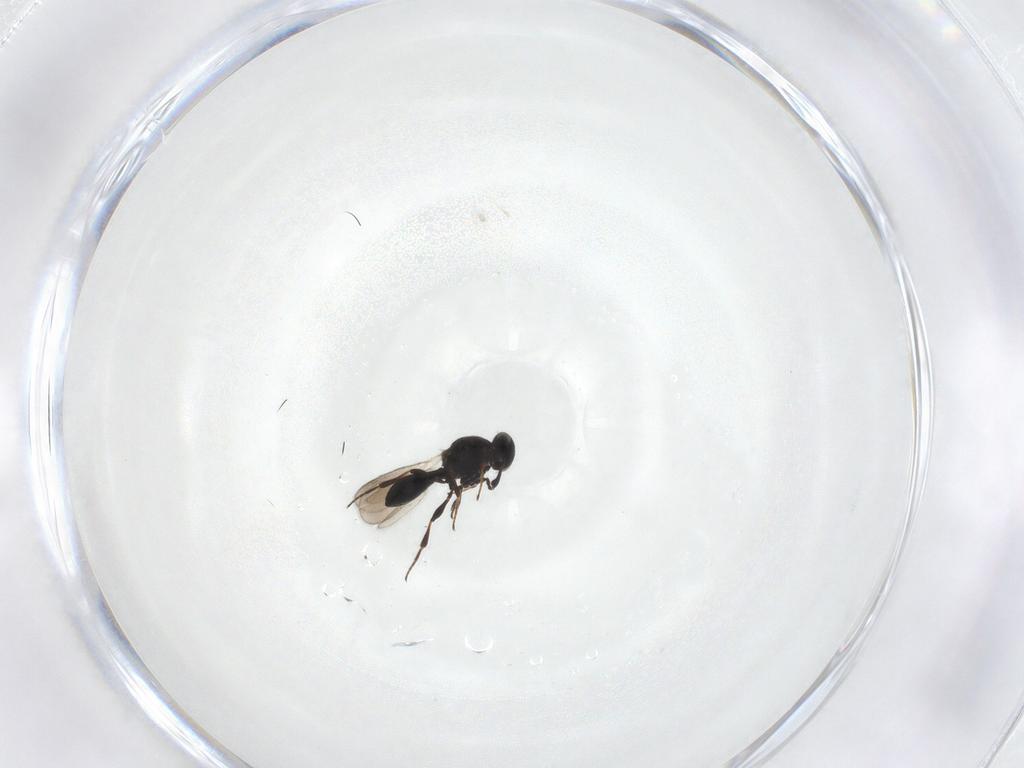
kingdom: Animalia
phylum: Arthropoda
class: Insecta
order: Hymenoptera
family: Platygastridae
